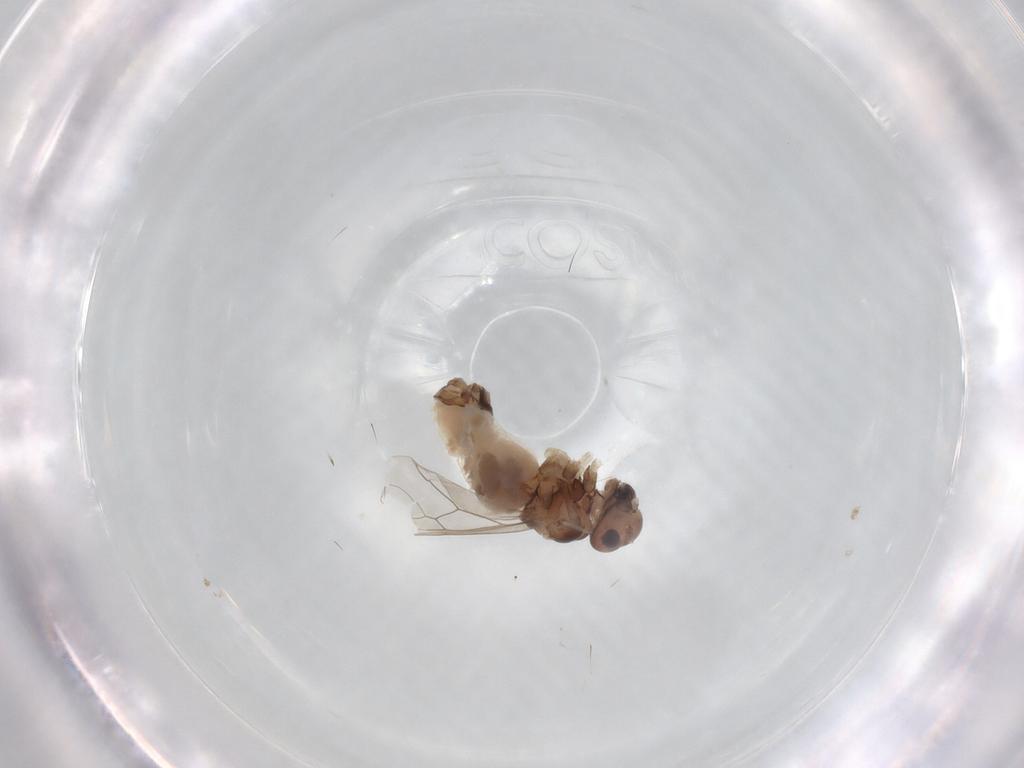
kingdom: Animalia
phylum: Arthropoda
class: Insecta
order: Psocodea
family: Peripsocidae
